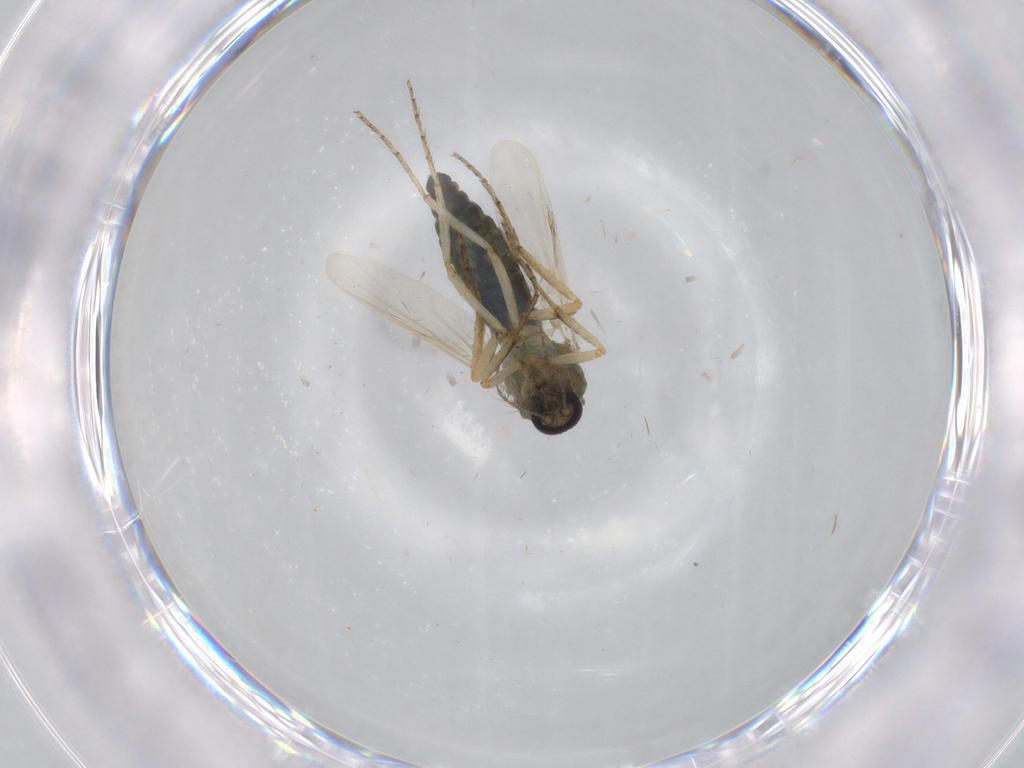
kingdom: Animalia
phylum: Arthropoda
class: Insecta
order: Diptera
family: Ceratopogonidae
